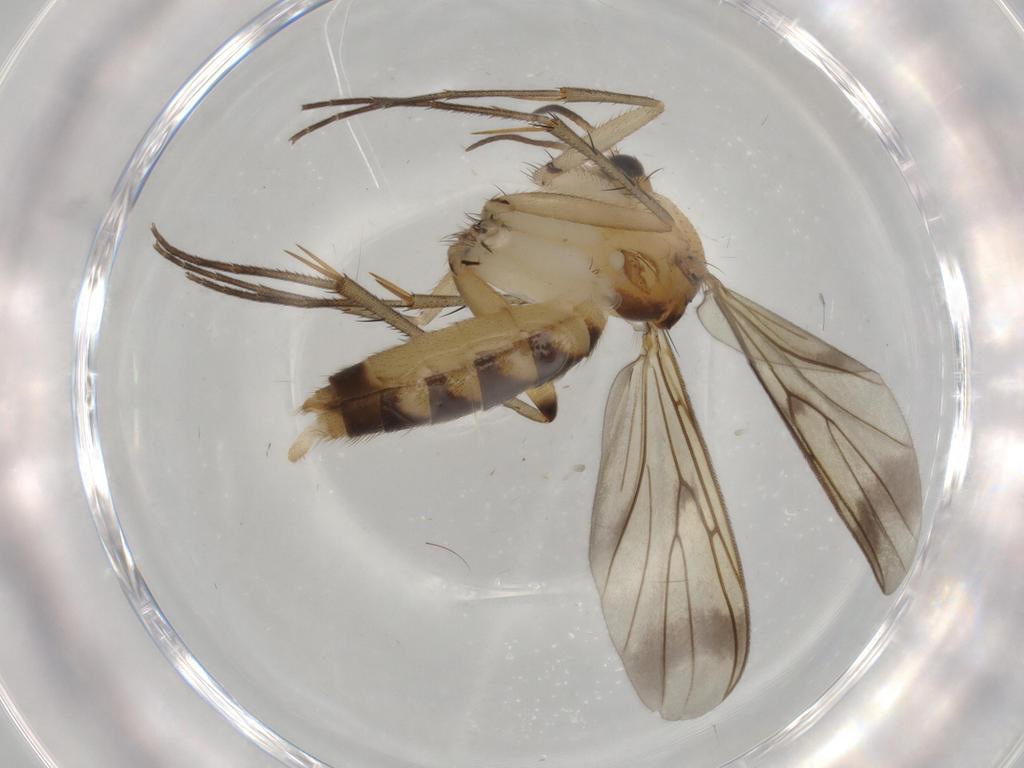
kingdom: Animalia
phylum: Arthropoda
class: Insecta
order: Diptera
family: Mycetophilidae
